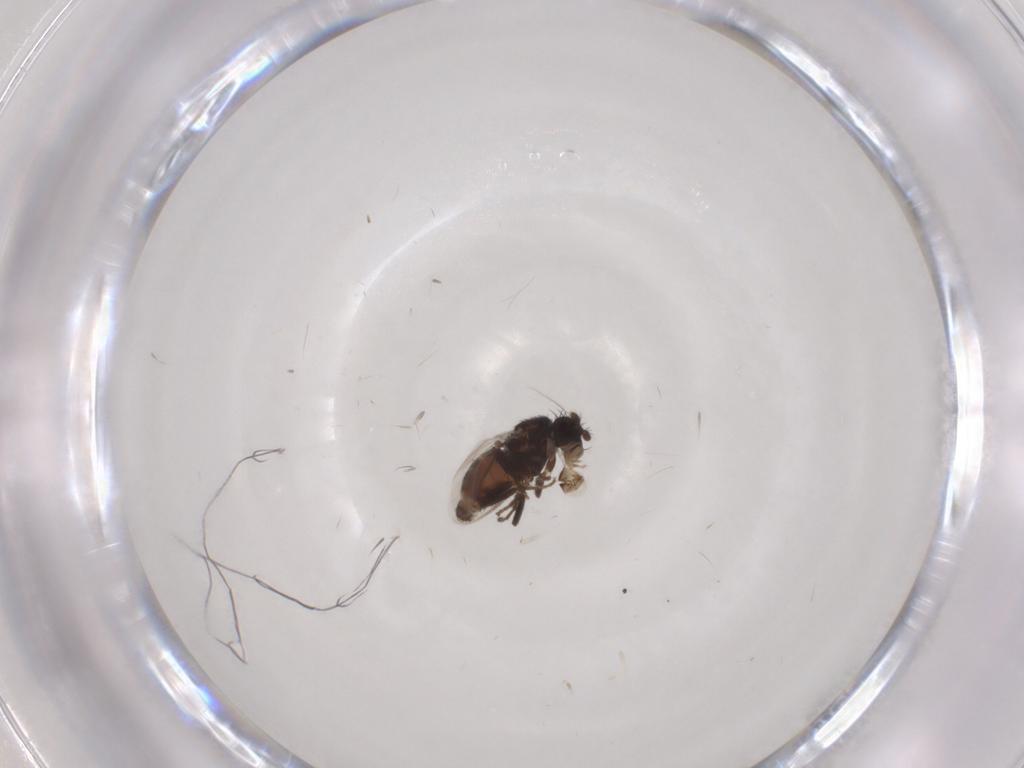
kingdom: Animalia
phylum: Arthropoda
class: Insecta
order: Diptera
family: Sphaeroceridae
